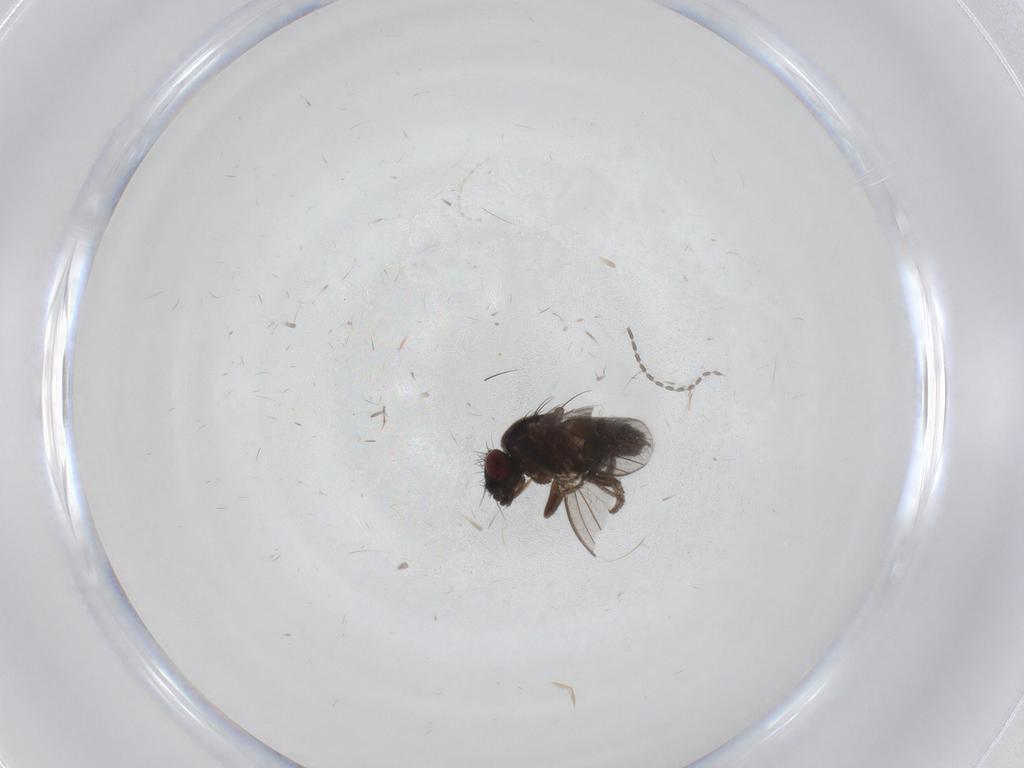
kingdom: Animalia
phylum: Arthropoda
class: Insecta
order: Diptera
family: Milichiidae
